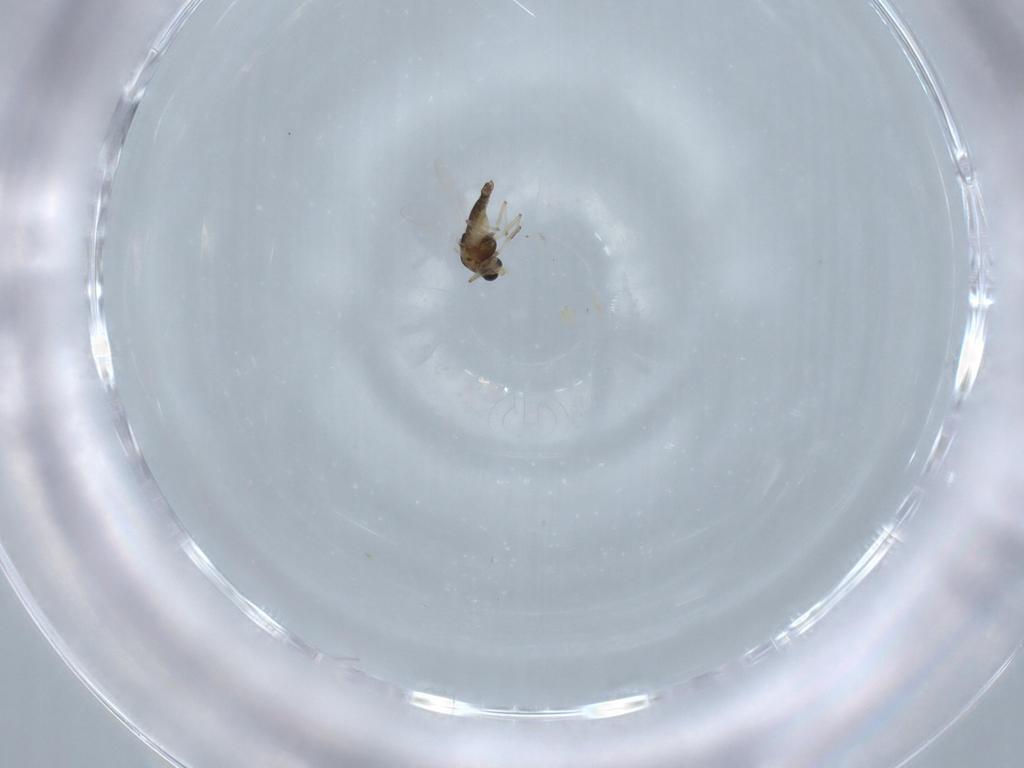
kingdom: Animalia
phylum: Arthropoda
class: Insecta
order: Diptera
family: Chironomidae
